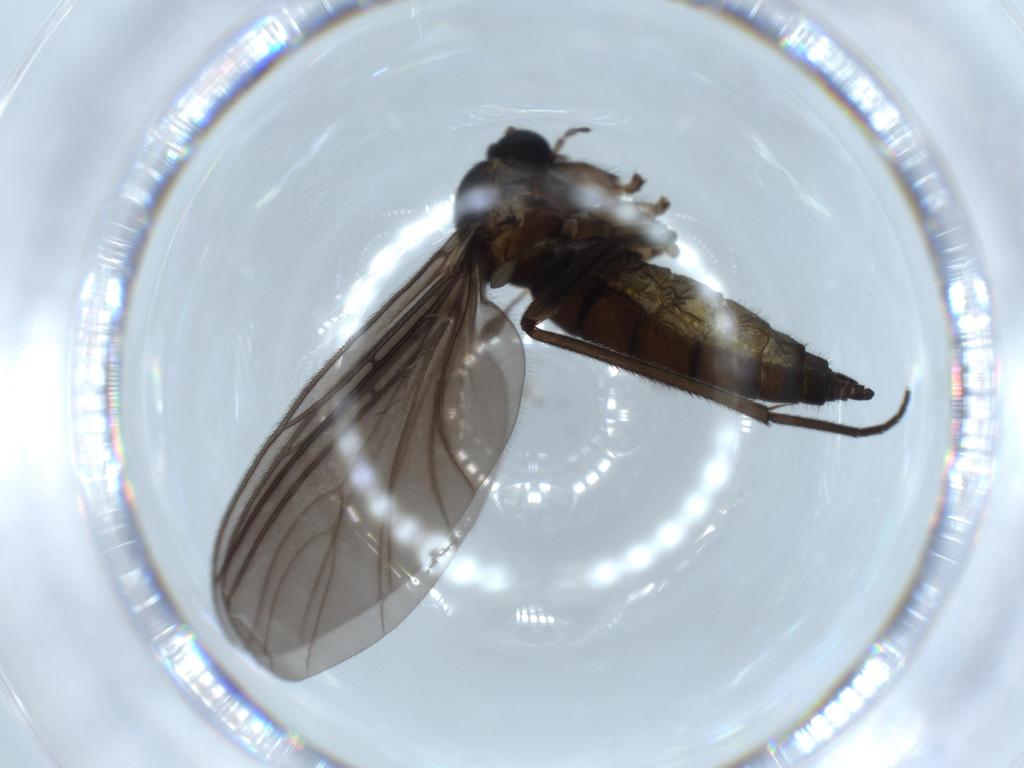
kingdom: Animalia
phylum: Arthropoda
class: Insecta
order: Diptera
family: Sciaridae
